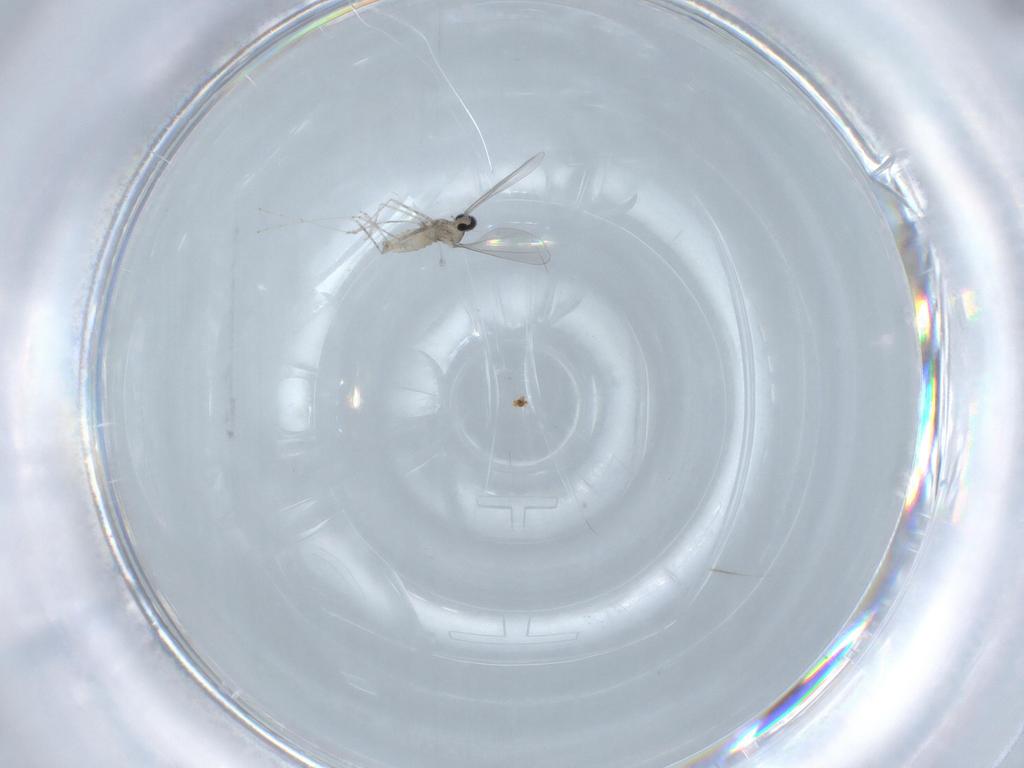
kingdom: Animalia
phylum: Arthropoda
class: Insecta
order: Diptera
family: Cecidomyiidae
